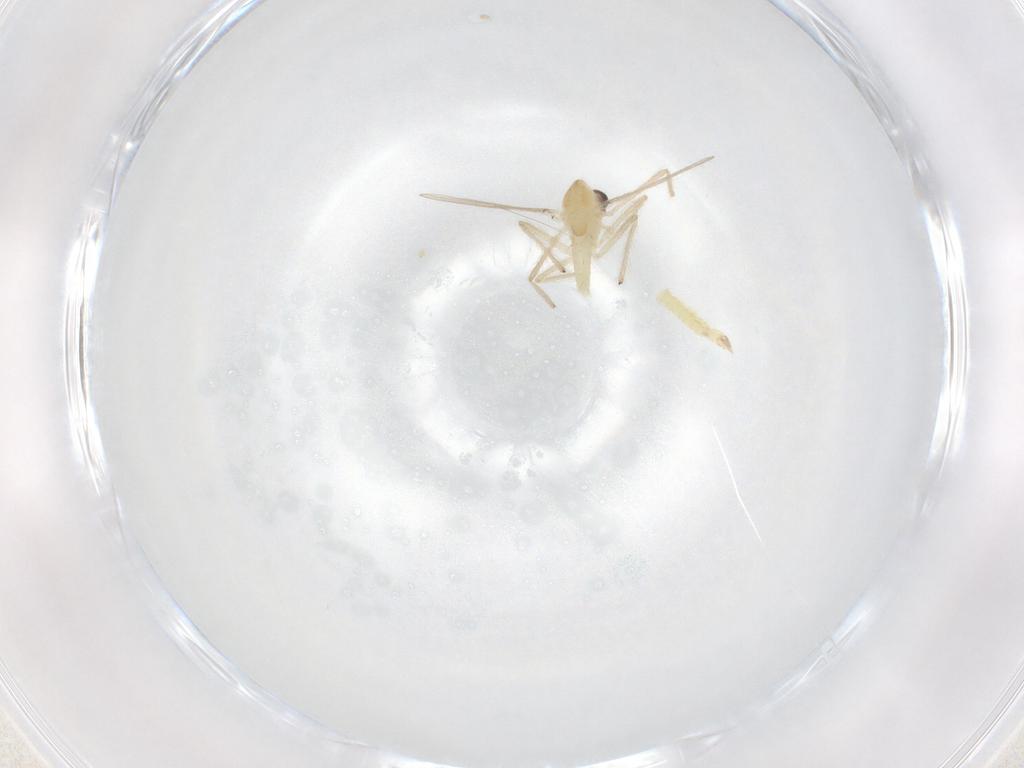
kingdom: Animalia
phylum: Arthropoda
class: Insecta
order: Diptera
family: Chironomidae
